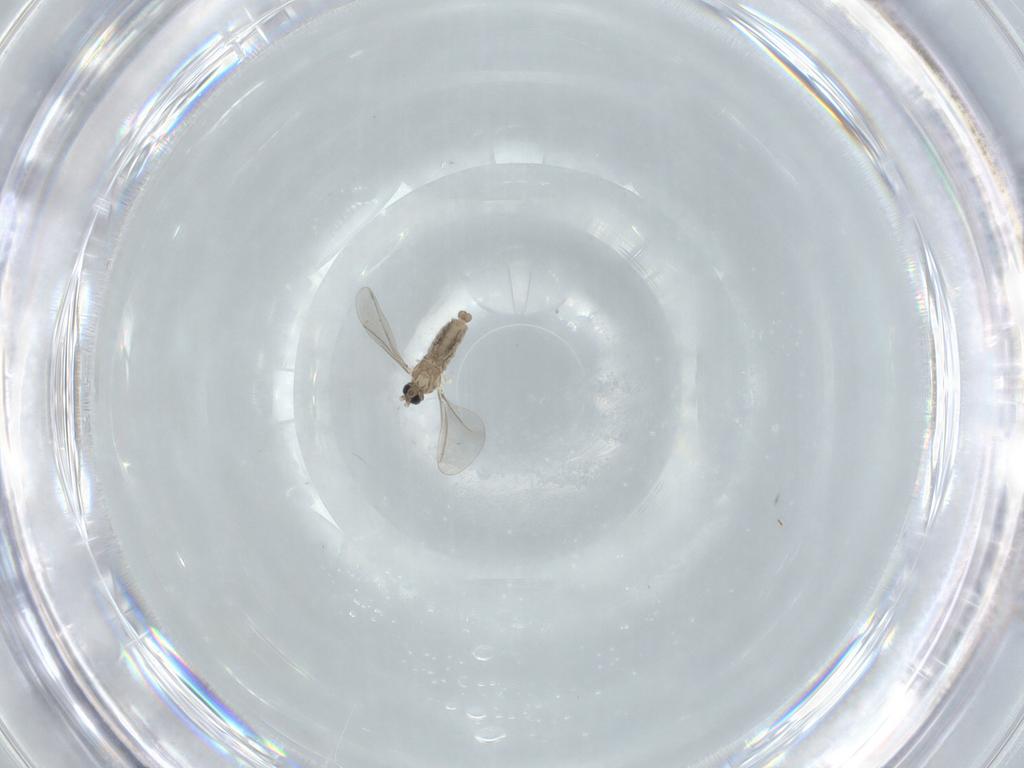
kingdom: Animalia
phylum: Arthropoda
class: Insecta
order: Diptera
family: Cecidomyiidae
